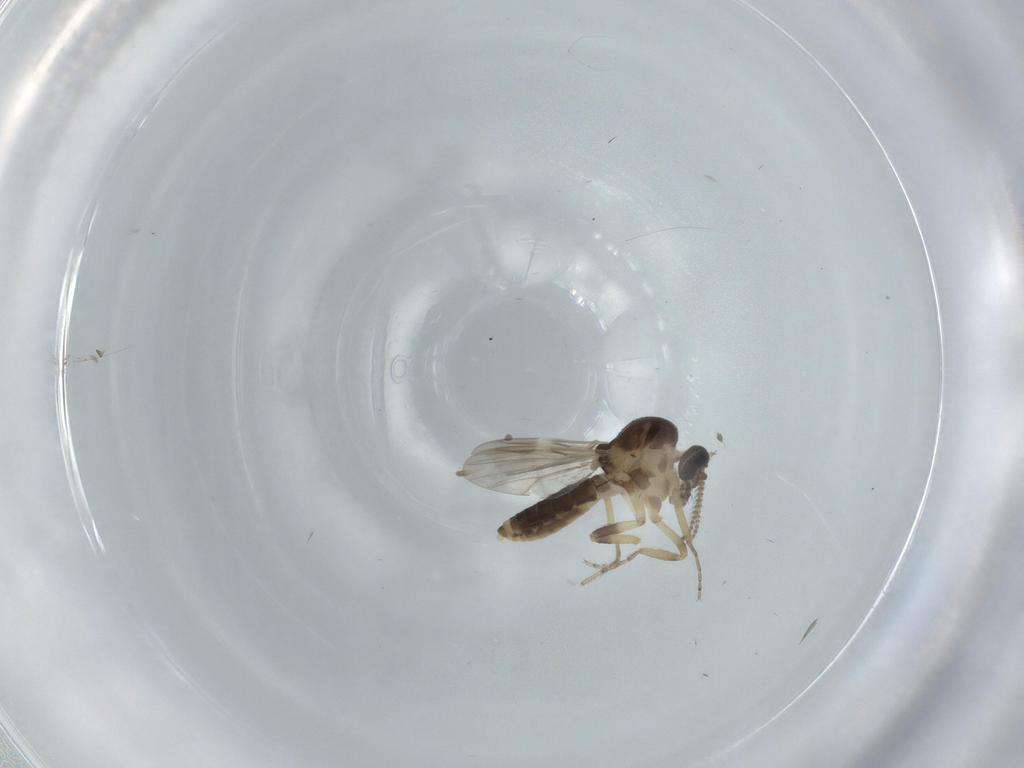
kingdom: Animalia
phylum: Arthropoda
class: Insecta
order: Diptera
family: Ceratopogonidae
